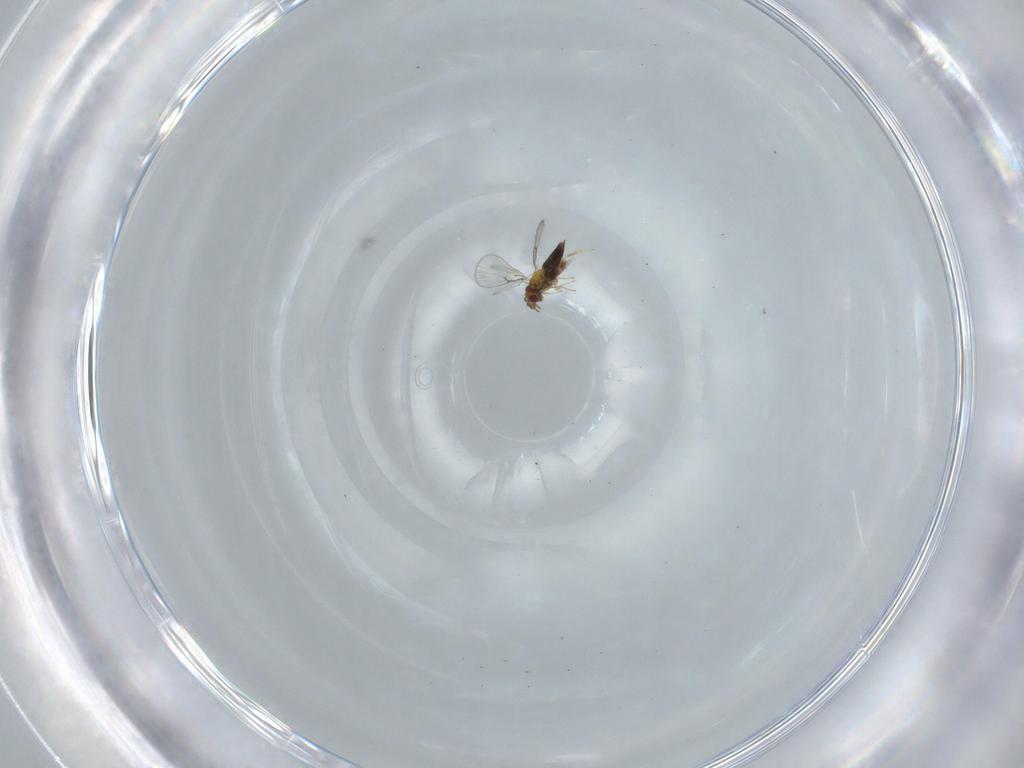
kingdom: Animalia
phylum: Arthropoda
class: Insecta
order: Hymenoptera
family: Trichogrammatidae
